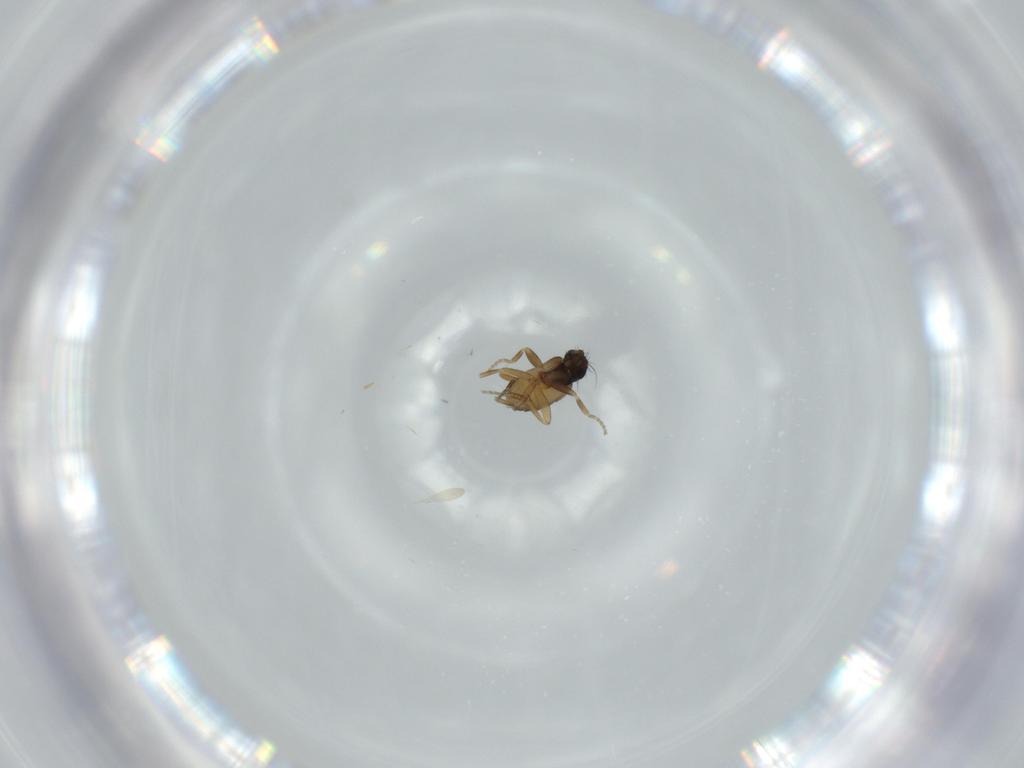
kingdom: Animalia
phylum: Arthropoda
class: Insecta
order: Diptera
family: Phoridae
